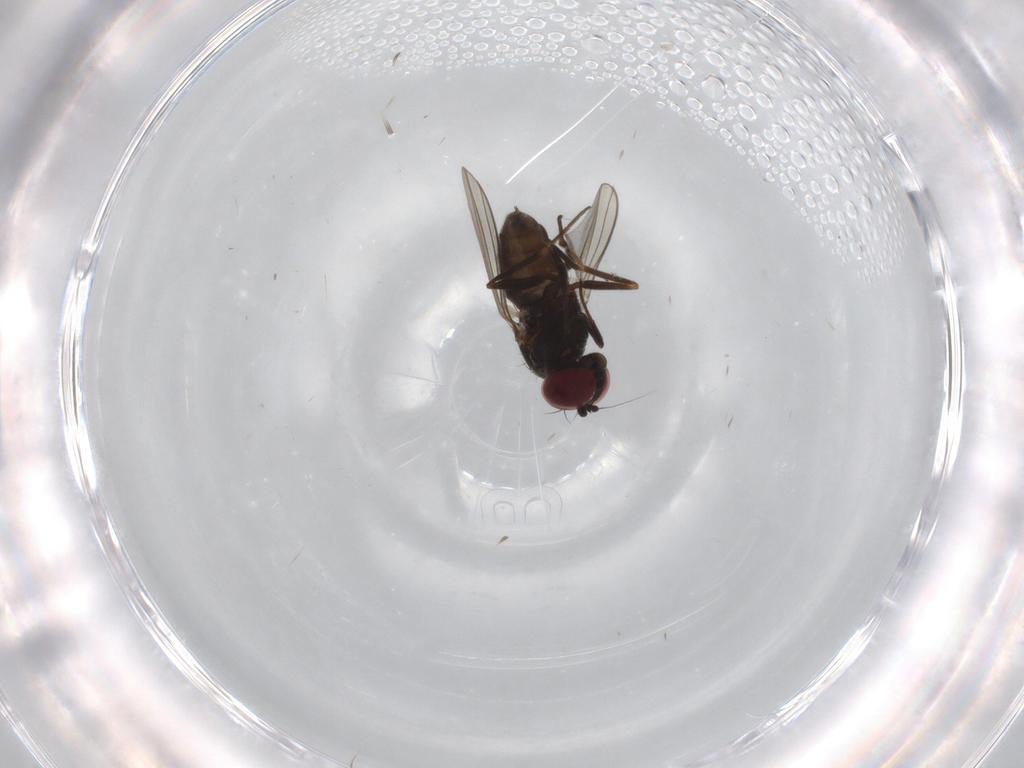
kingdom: Animalia
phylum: Arthropoda
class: Insecta
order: Diptera
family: Dolichopodidae
